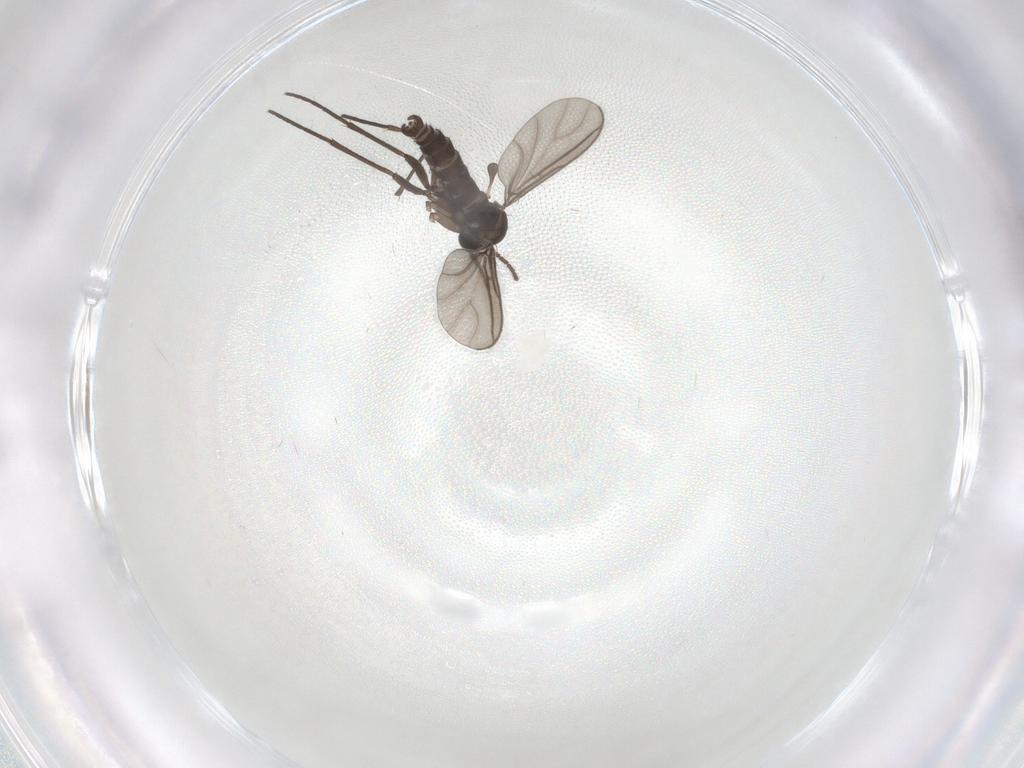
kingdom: Animalia
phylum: Arthropoda
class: Insecta
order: Diptera
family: Sciaridae
